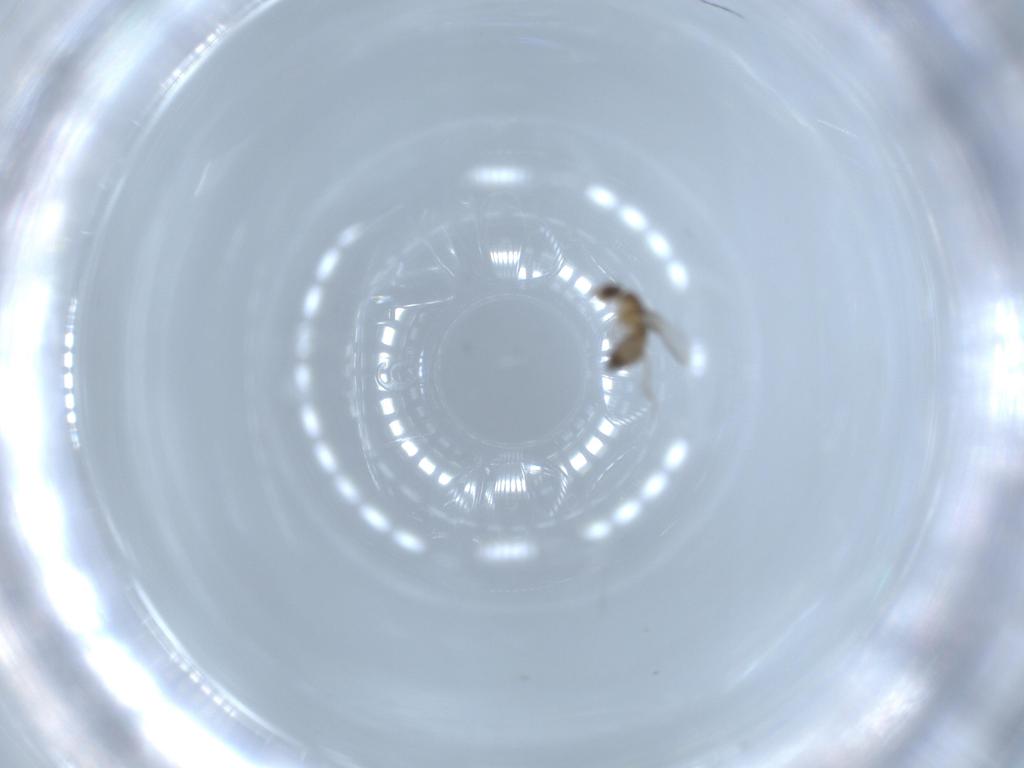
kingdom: Animalia
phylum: Arthropoda
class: Insecta
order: Diptera
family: Phoridae
